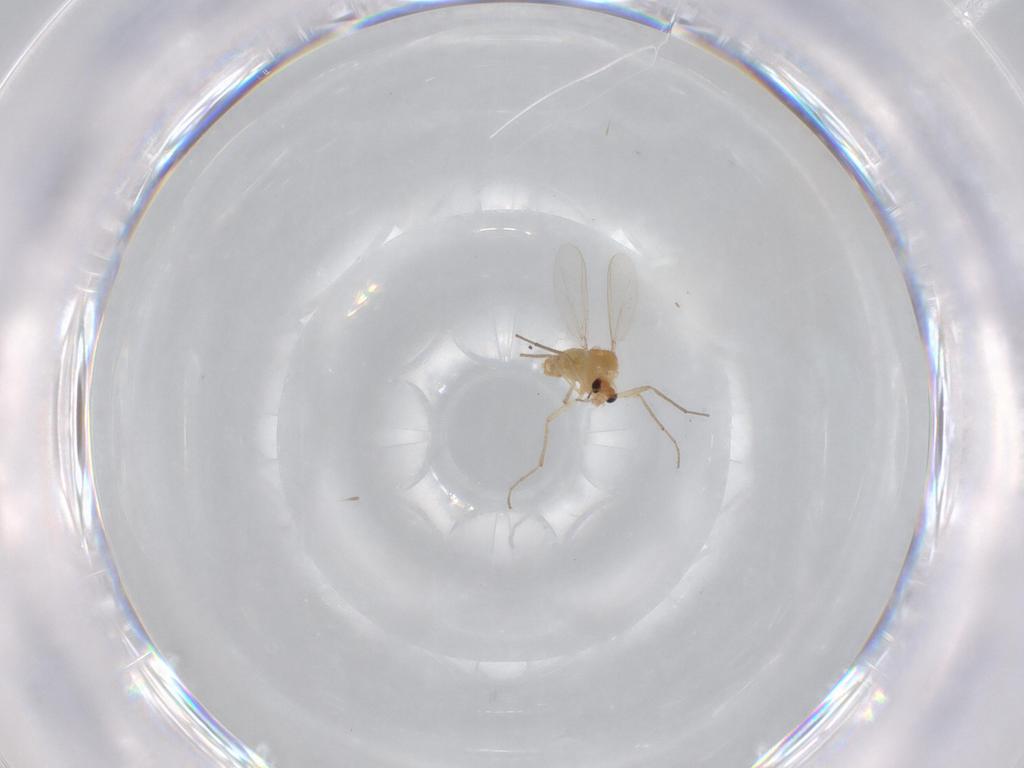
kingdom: Animalia
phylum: Arthropoda
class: Insecta
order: Diptera
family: Chironomidae
